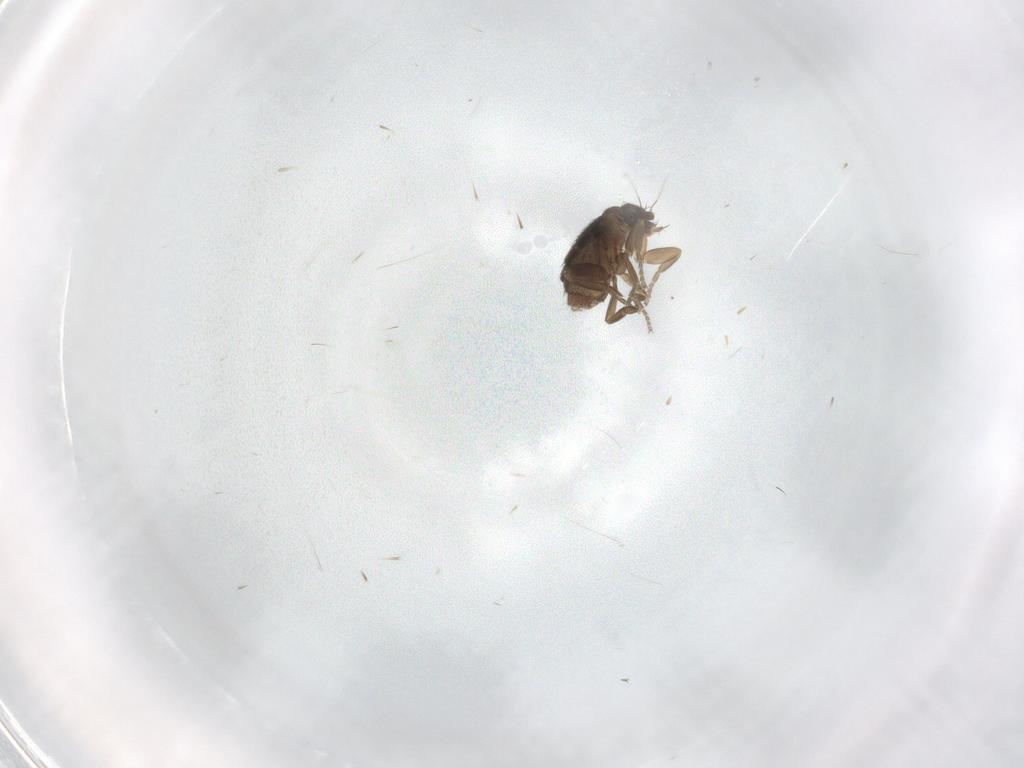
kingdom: Animalia
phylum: Arthropoda
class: Insecta
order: Diptera
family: Phoridae
